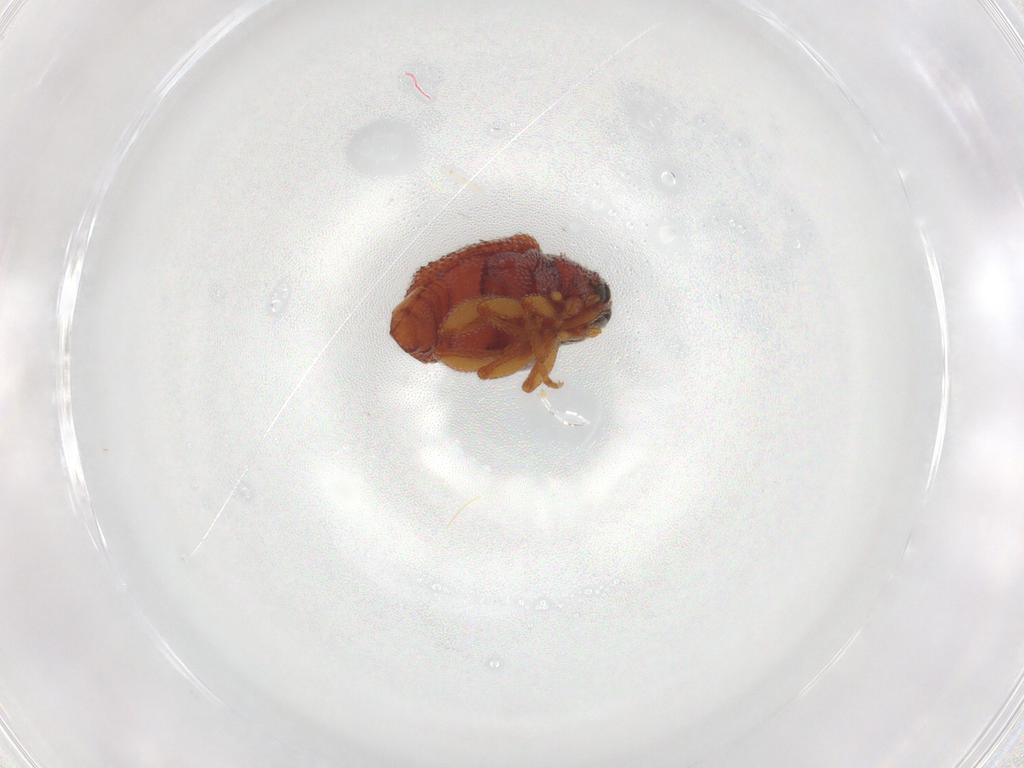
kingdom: Animalia
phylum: Arthropoda
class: Insecta
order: Coleoptera
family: Curculionidae
